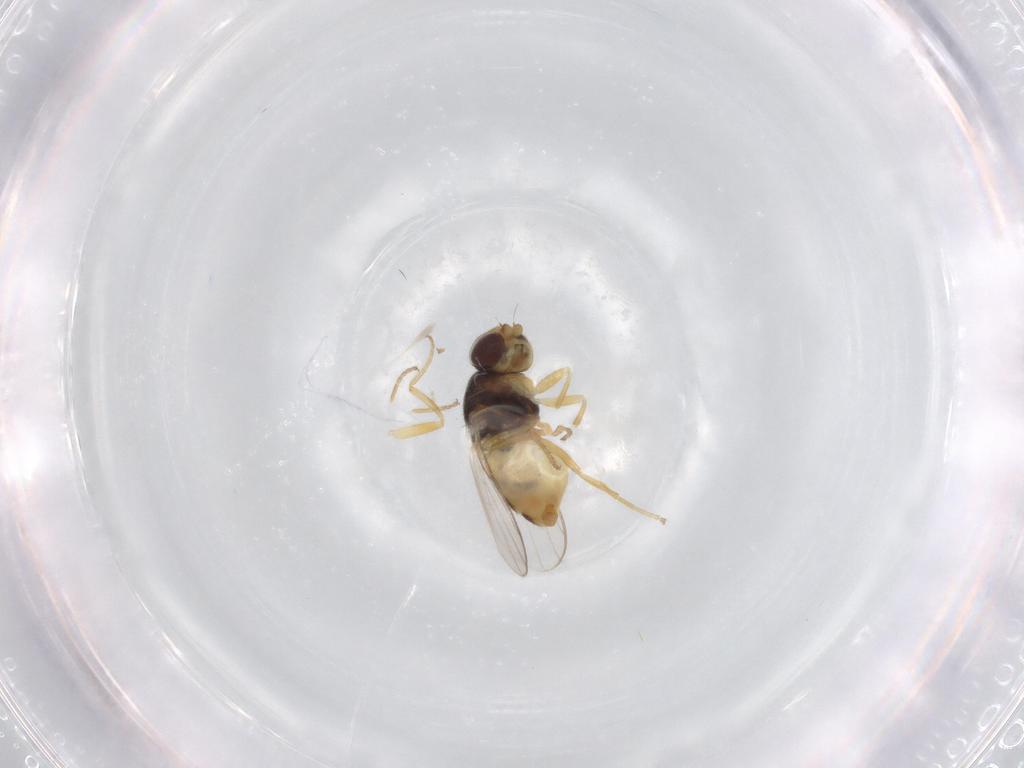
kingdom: Animalia
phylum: Arthropoda
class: Insecta
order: Diptera
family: Chloropidae
